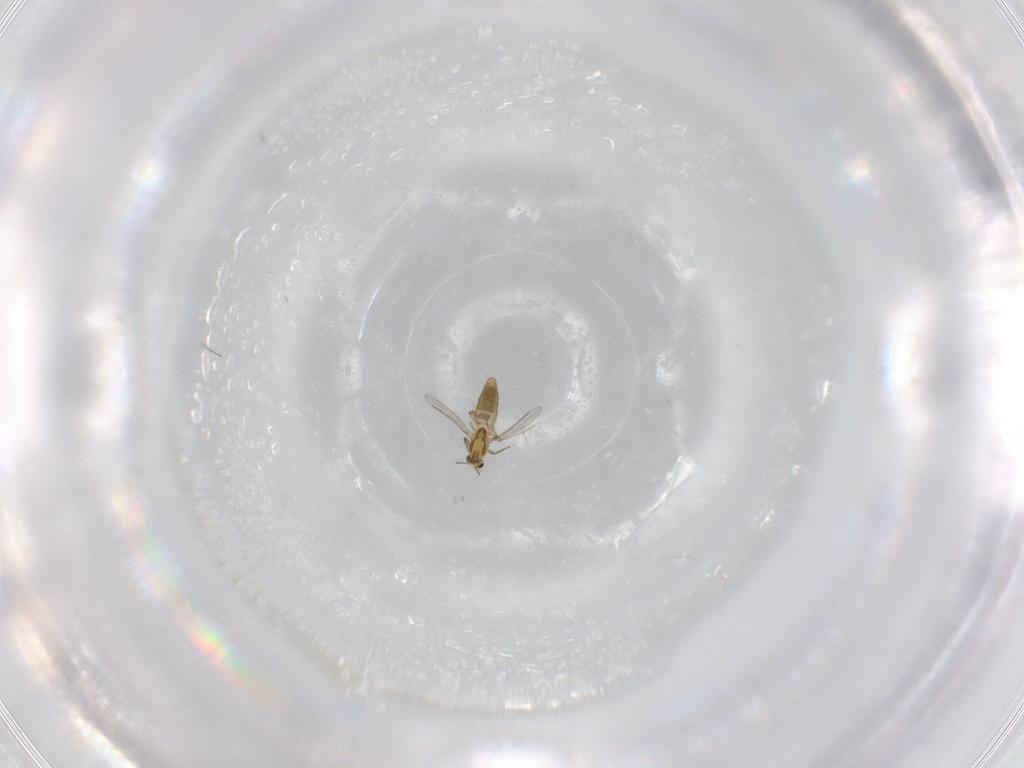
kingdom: Animalia
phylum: Arthropoda
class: Insecta
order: Diptera
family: Chironomidae
